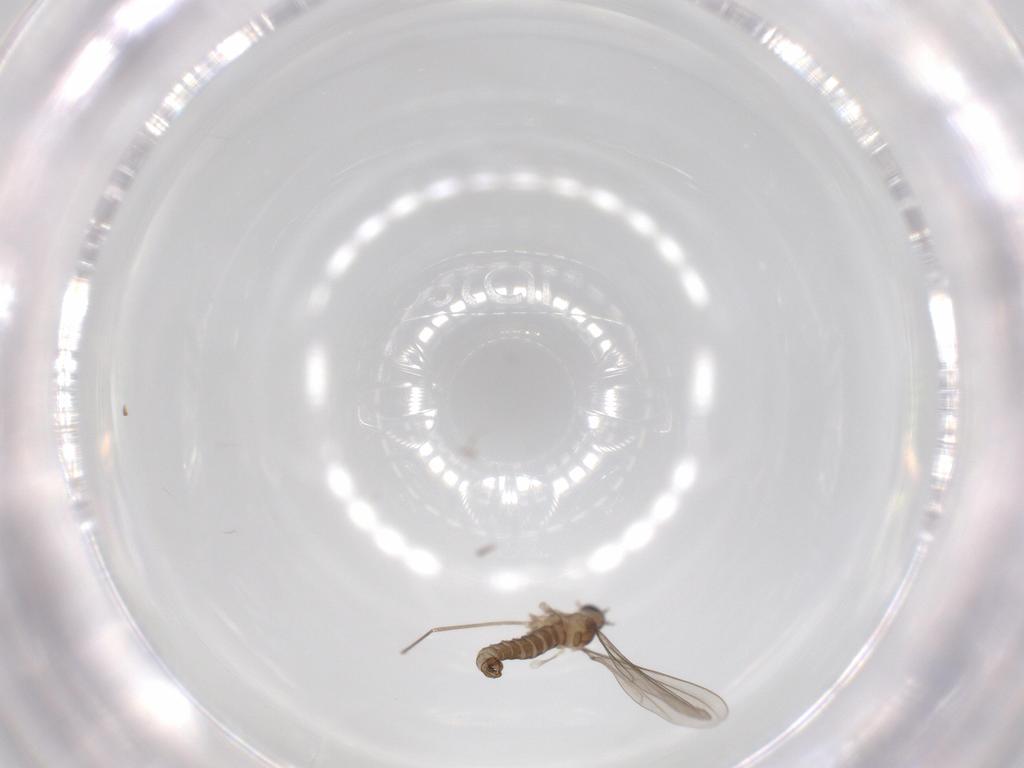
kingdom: Animalia
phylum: Arthropoda
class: Insecta
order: Diptera
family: Cecidomyiidae
